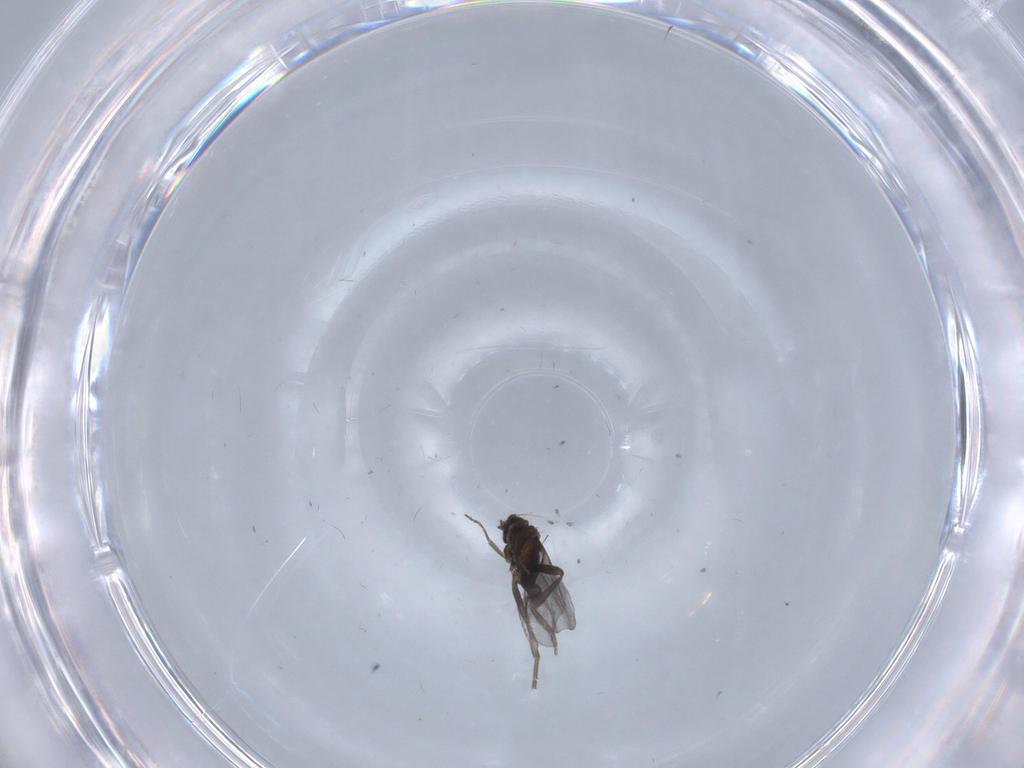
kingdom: Animalia
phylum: Arthropoda
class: Insecta
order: Diptera
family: Phoridae
